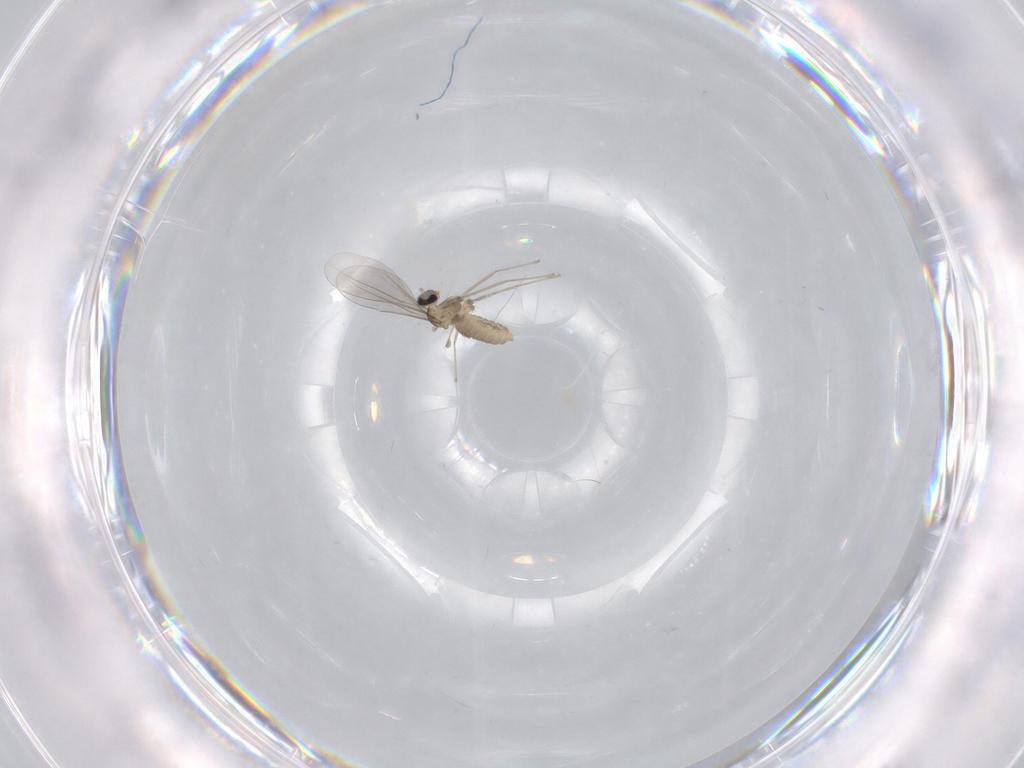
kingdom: Animalia
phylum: Arthropoda
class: Insecta
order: Diptera
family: Cecidomyiidae
